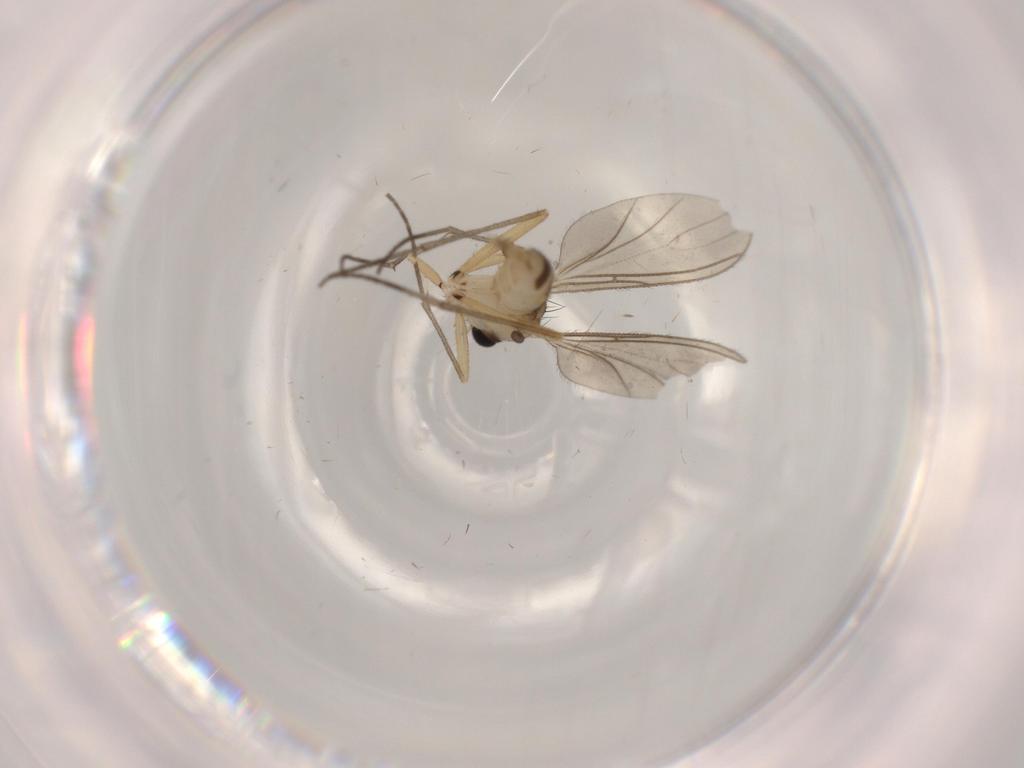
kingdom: Animalia
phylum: Arthropoda
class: Insecta
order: Diptera
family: Sciaridae
